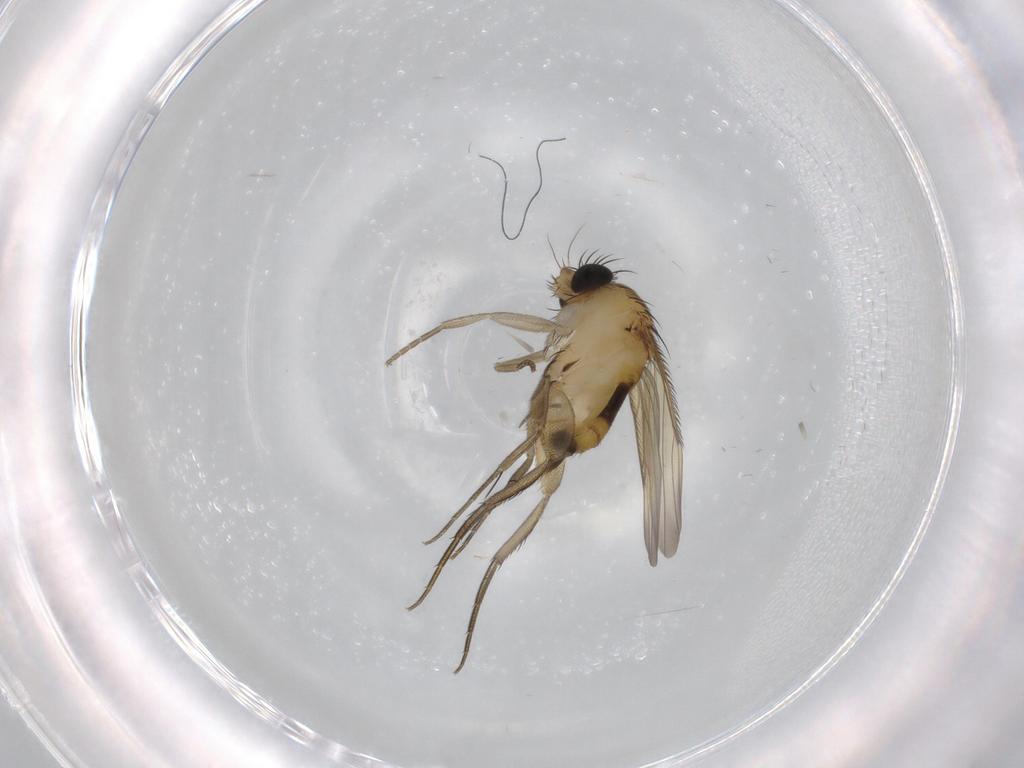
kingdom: Animalia
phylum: Arthropoda
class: Insecta
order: Diptera
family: Phoridae
